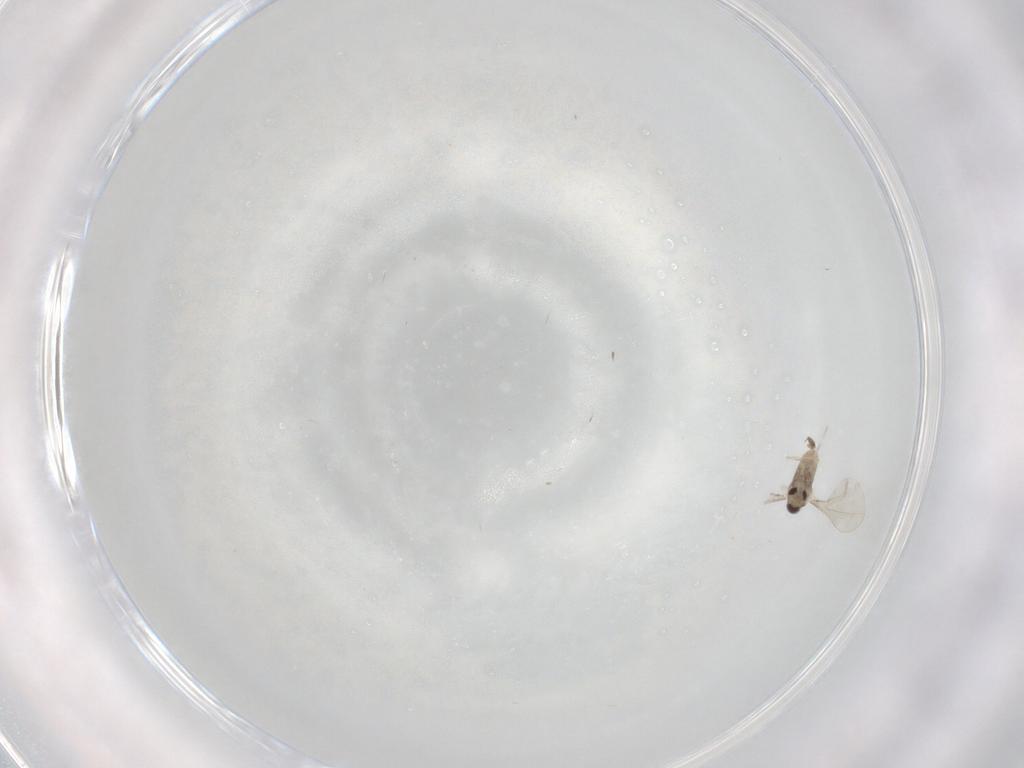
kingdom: Animalia
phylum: Arthropoda
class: Insecta
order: Diptera
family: Cecidomyiidae
